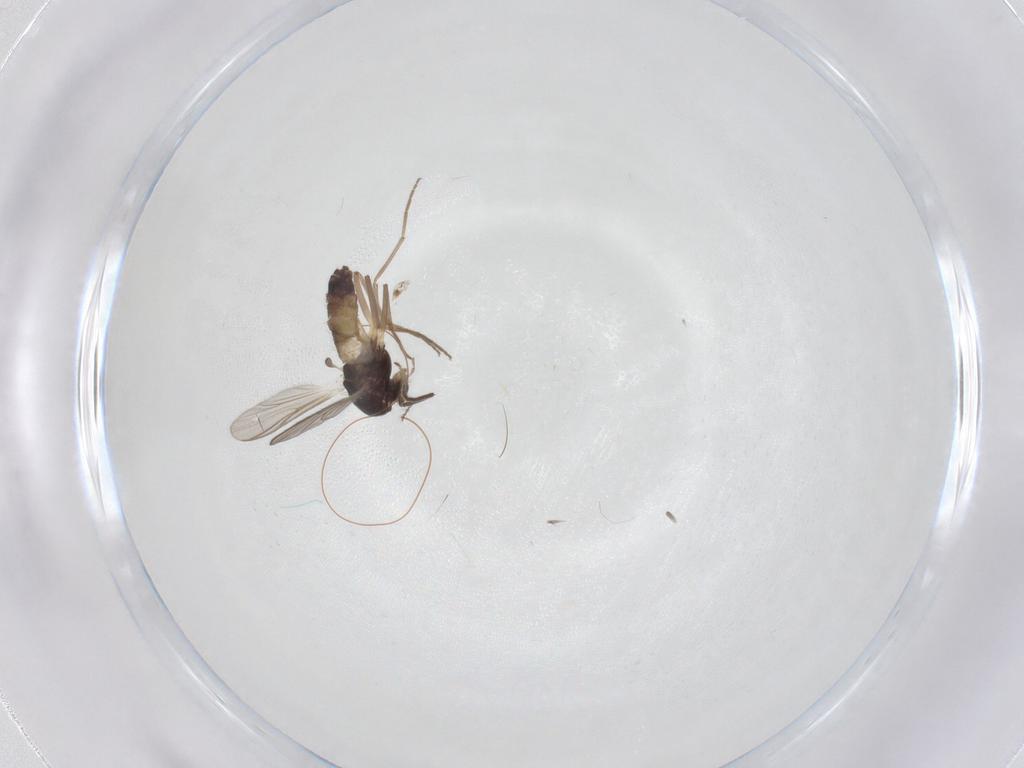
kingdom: Animalia
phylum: Arthropoda
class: Insecta
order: Diptera
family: Chironomidae
